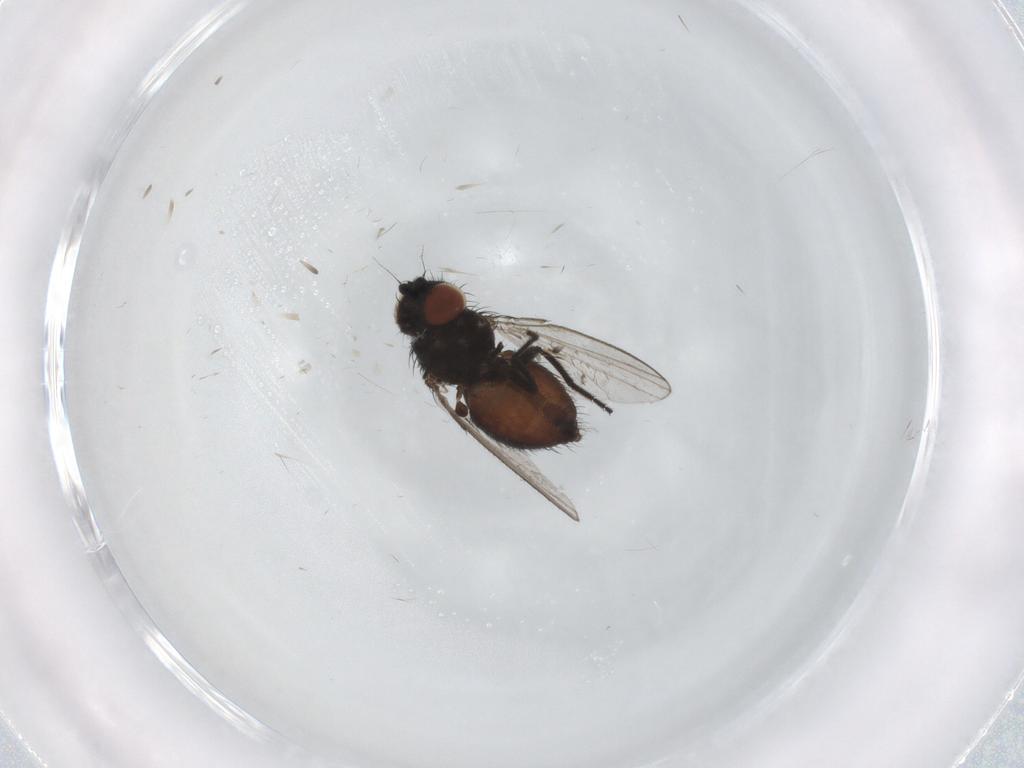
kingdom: Animalia
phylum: Arthropoda
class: Insecta
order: Diptera
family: Milichiidae
